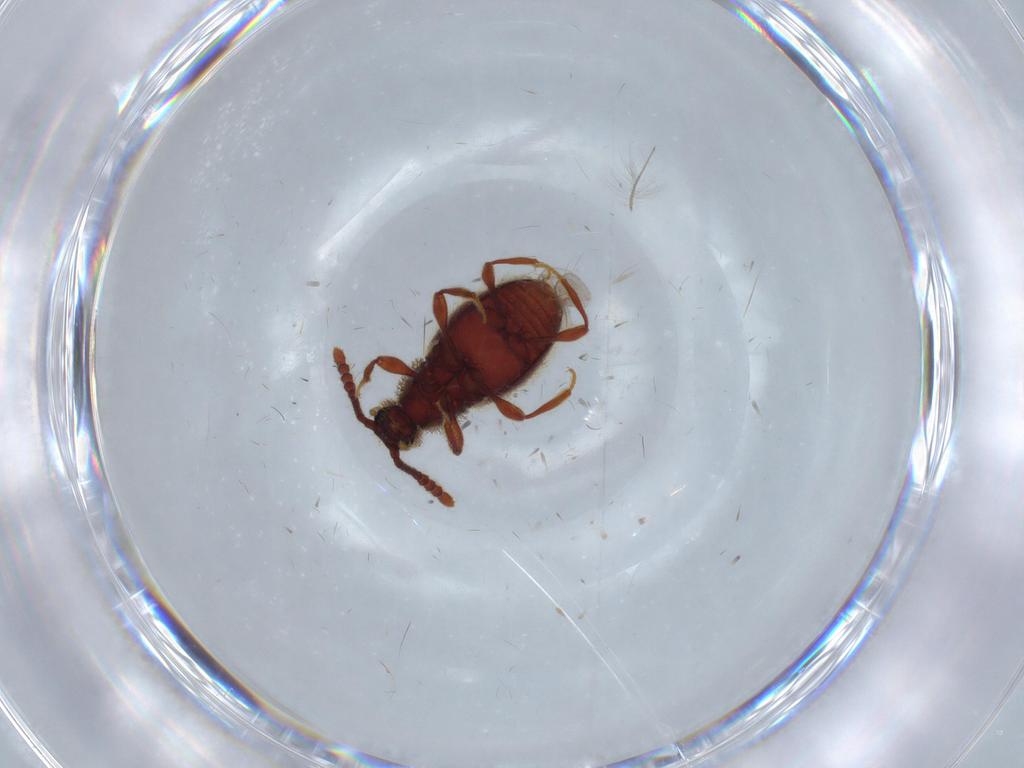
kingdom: Animalia
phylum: Arthropoda
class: Insecta
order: Coleoptera
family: Staphylinidae
